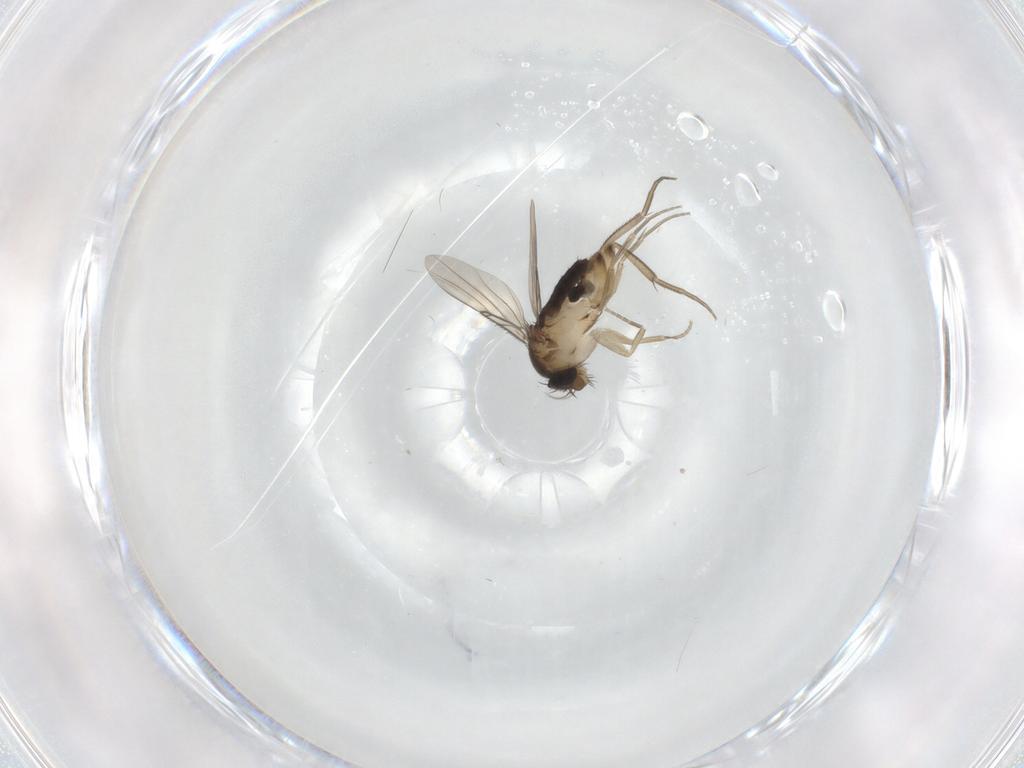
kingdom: Animalia
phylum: Arthropoda
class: Insecta
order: Diptera
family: Phoridae
